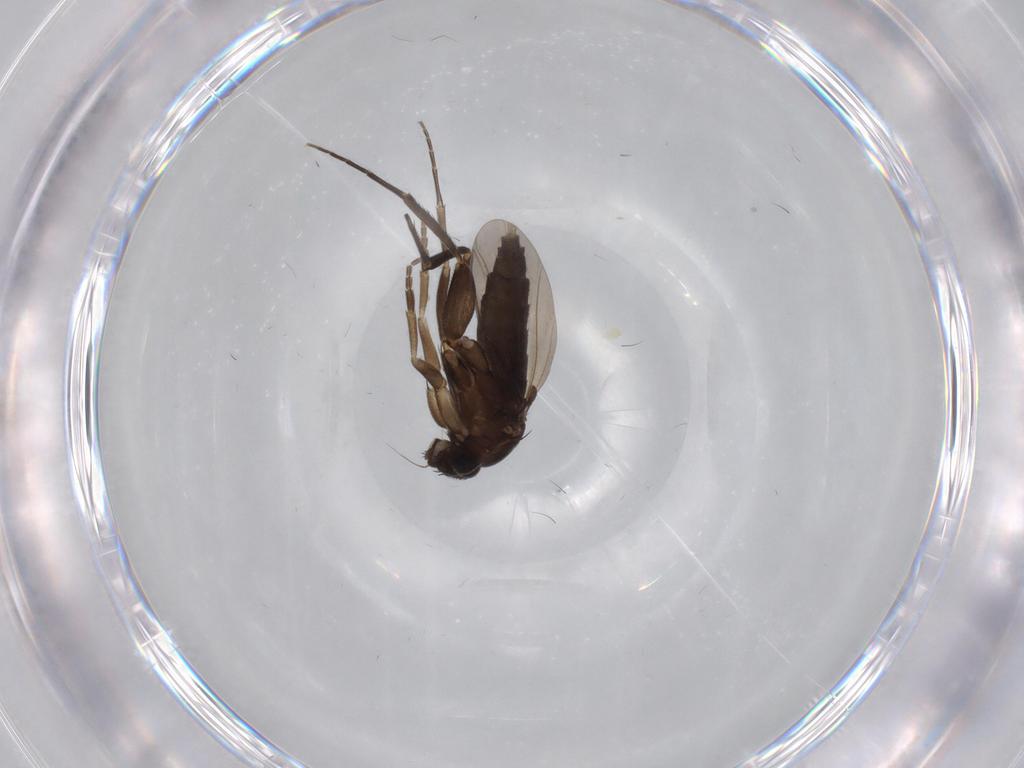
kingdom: Animalia
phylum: Arthropoda
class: Insecta
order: Diptera
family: Phoridae
